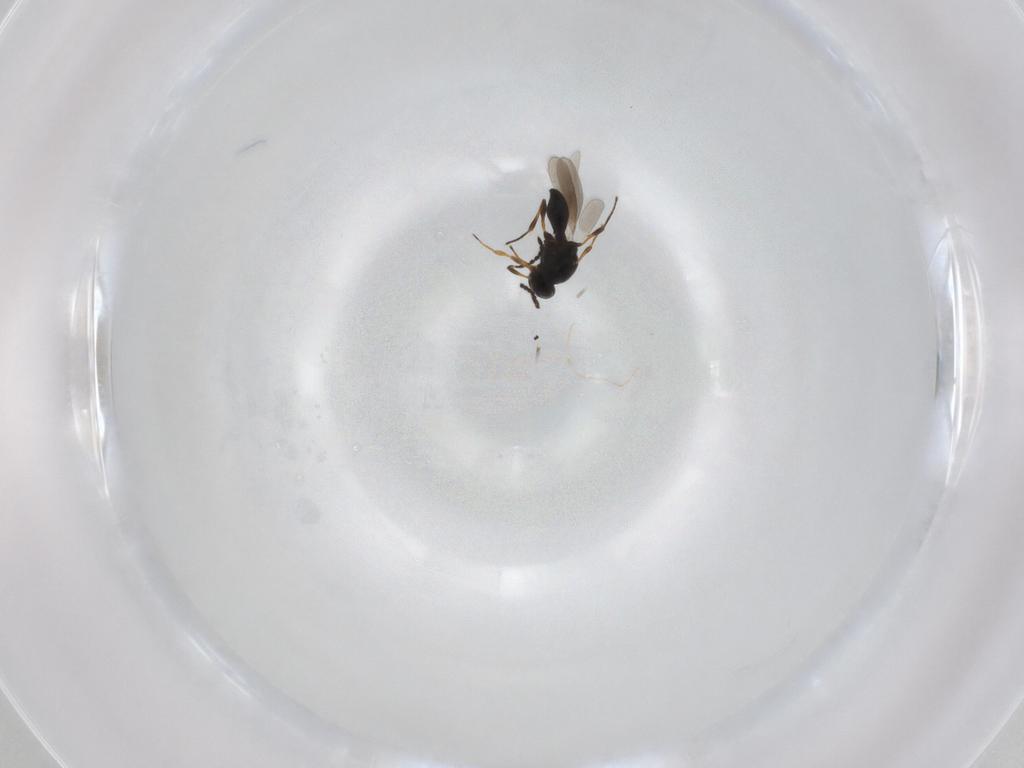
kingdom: Animalia
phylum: Arthropoda
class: Insecta
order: Hymenoptera
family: Platygastridae
